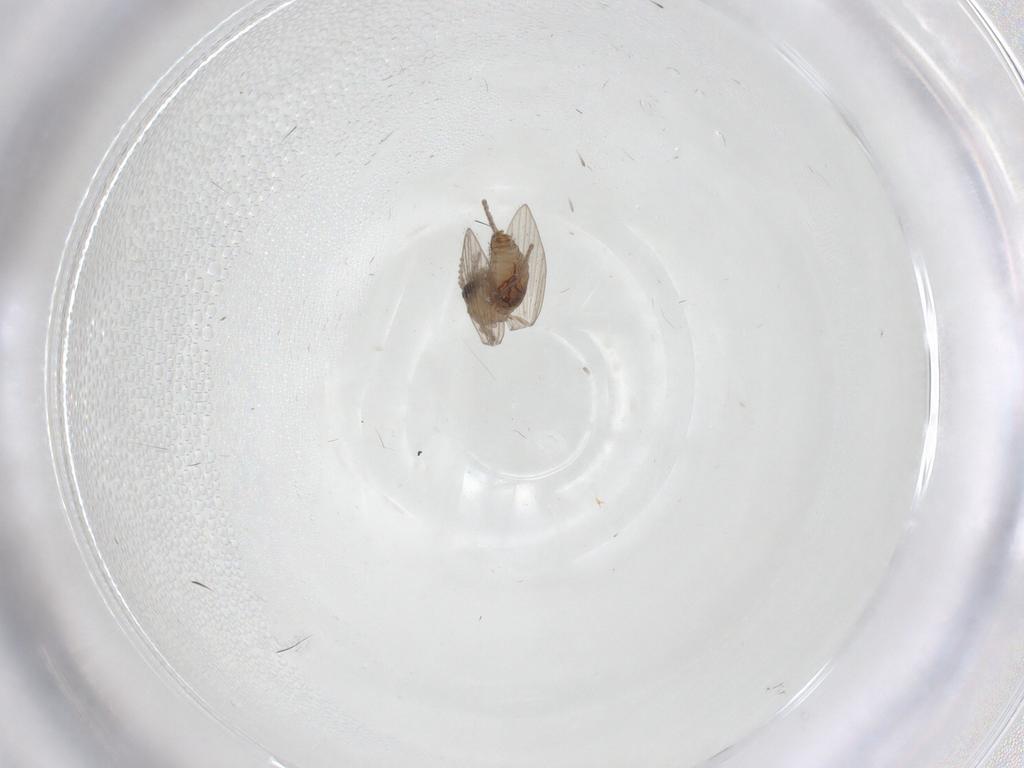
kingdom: Animalia
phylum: Arthropoda
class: Insecta
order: Diptera
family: Psychodidae
